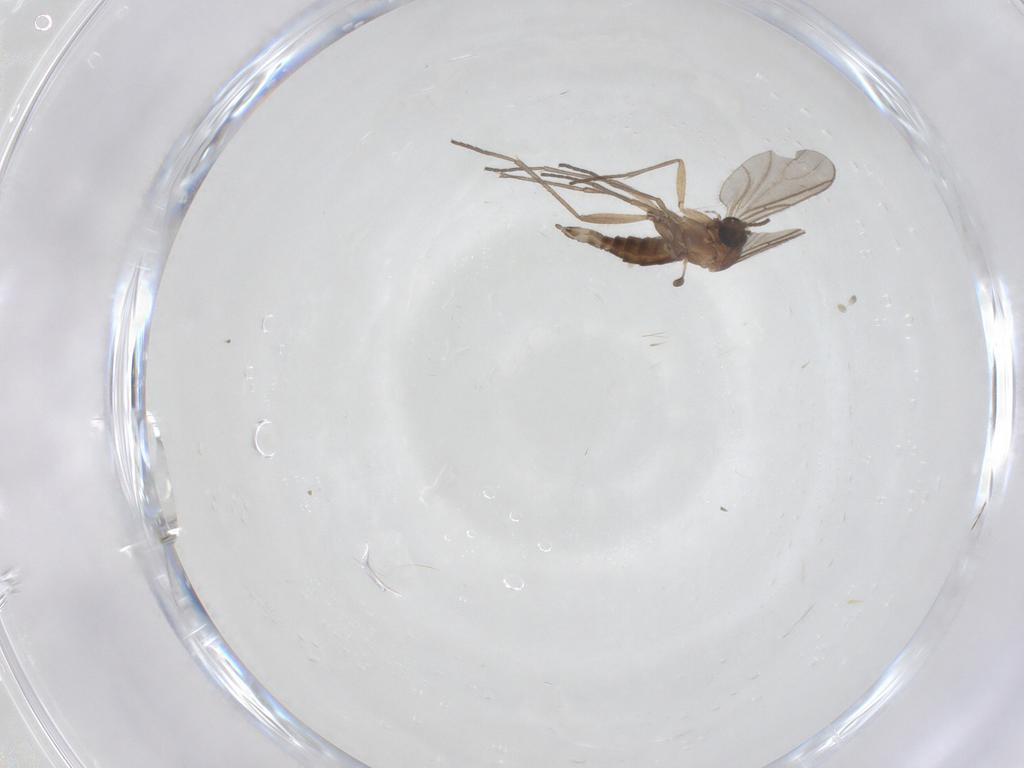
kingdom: Animalia
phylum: Arthropoda
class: Insecta
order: Diptera
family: Sciaridae
